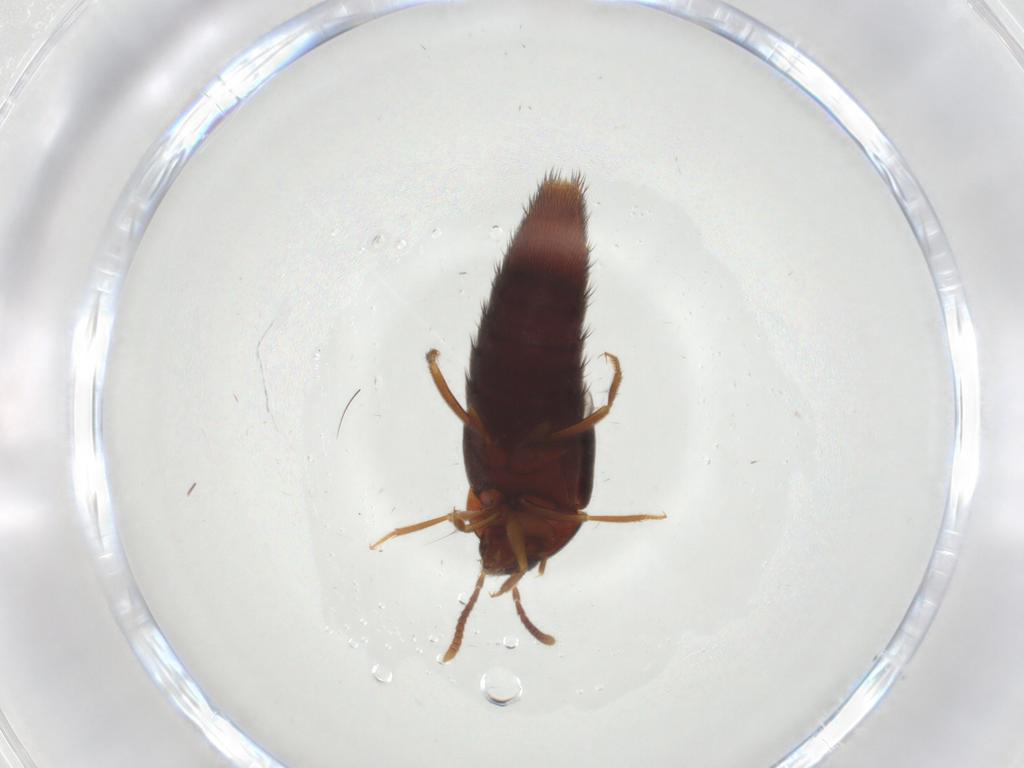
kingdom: Animalia
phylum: Arthropoda
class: Insecta
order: Coleoptera
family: Staphylinidae
